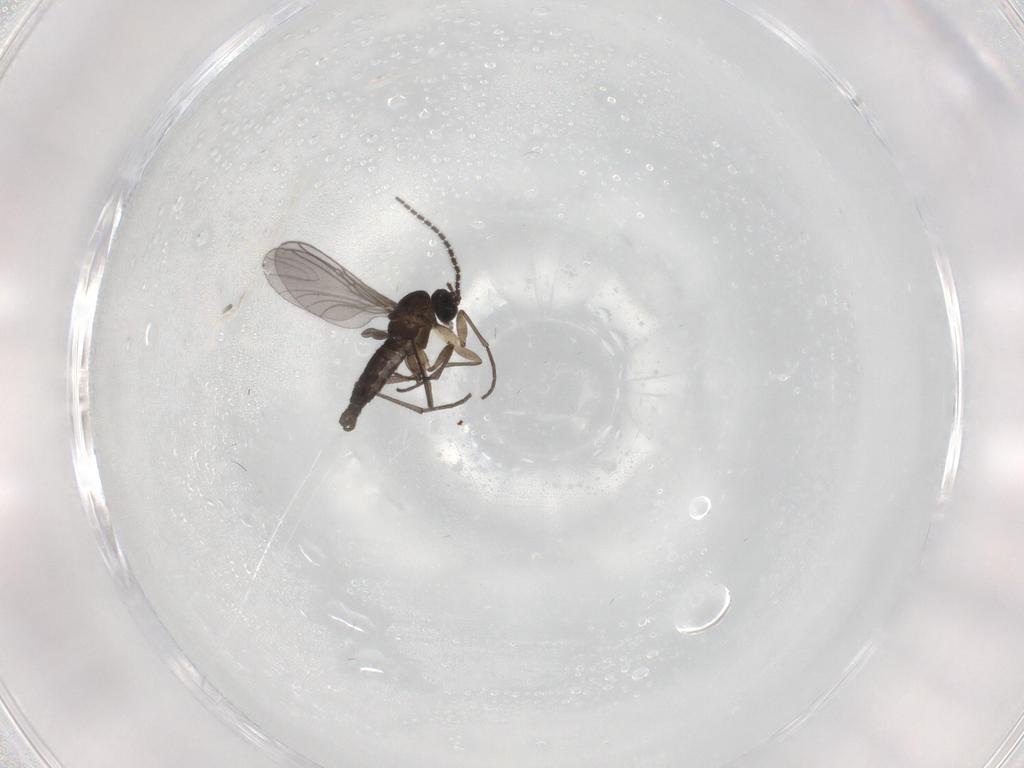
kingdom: Animalia
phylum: Arthropoda
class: Insecta
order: Diptera
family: Sciaridae
